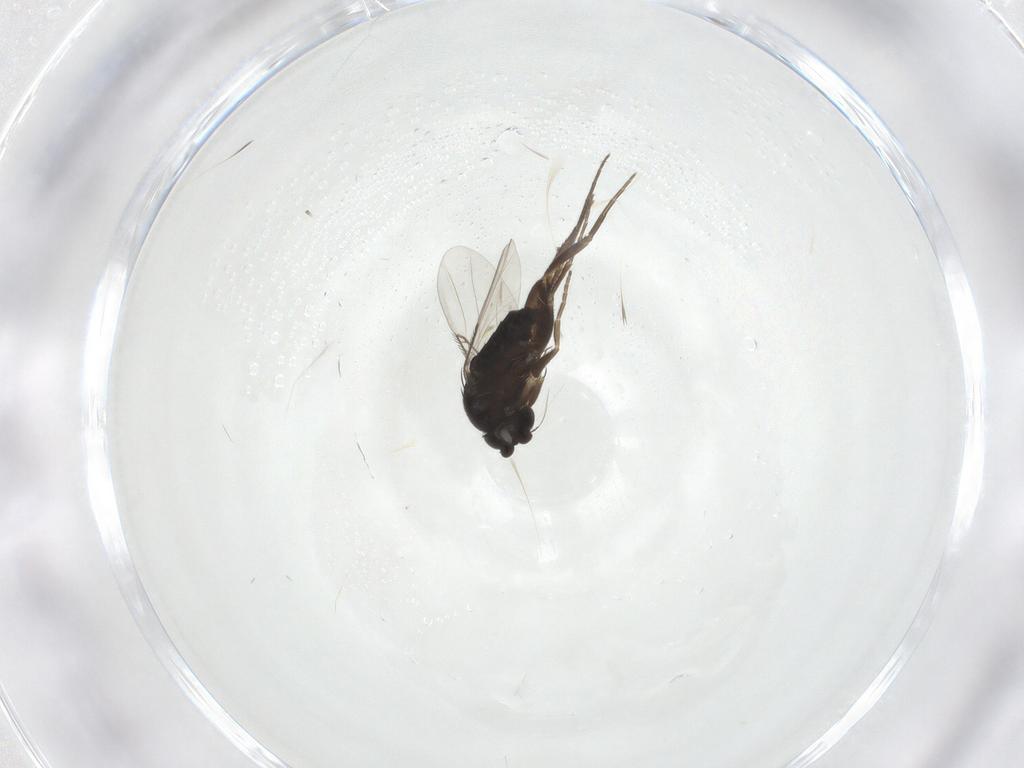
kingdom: Animalia
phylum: Arthropoda
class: Insecta
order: Diptera
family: Phoridae
